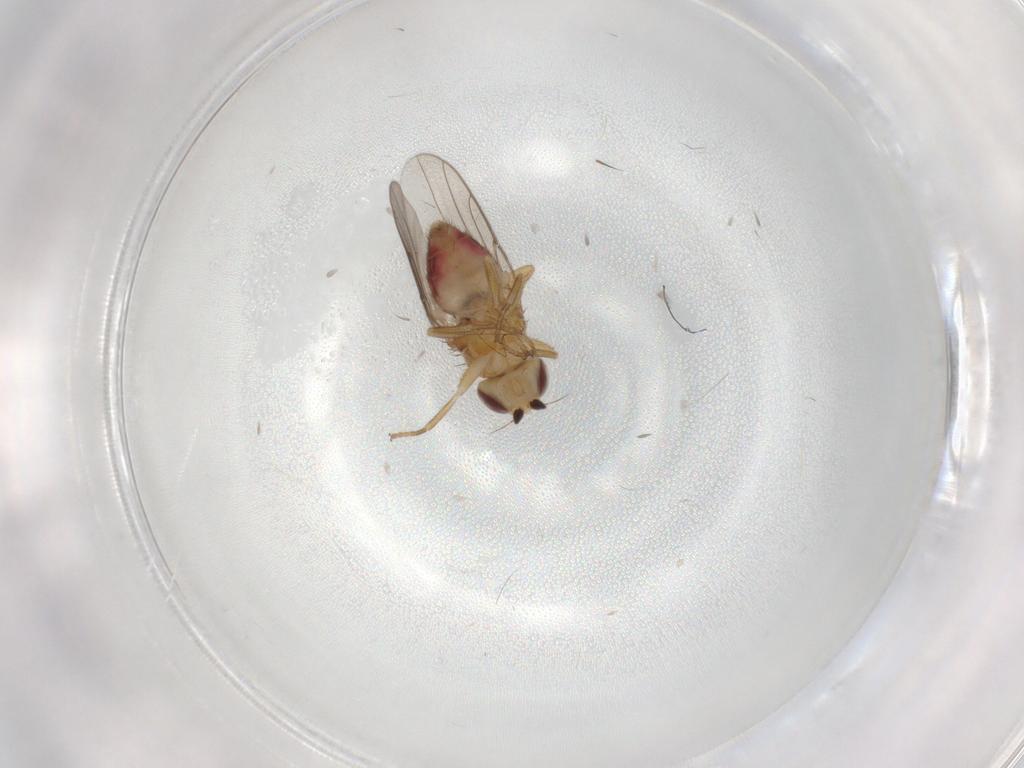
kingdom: Animalia
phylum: Arthropoda
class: Insecta
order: Diptera
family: Chloropidae
